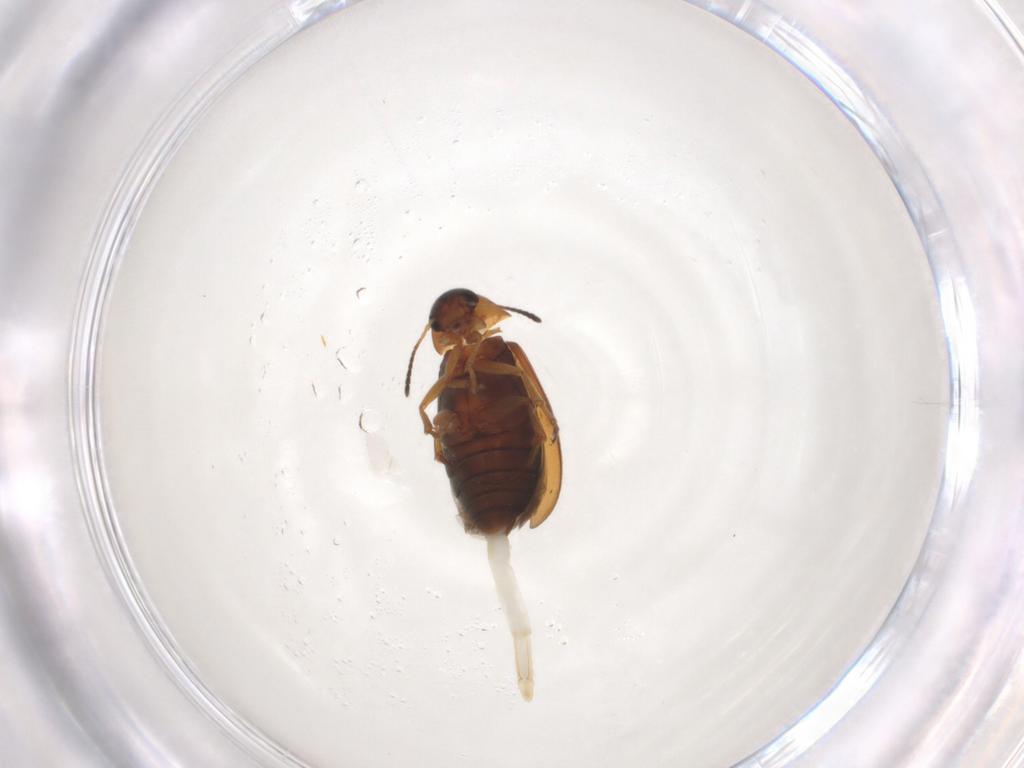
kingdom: Animalia
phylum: Arthropoda
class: Insecta
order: Coleoptera
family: Scraptiidae
